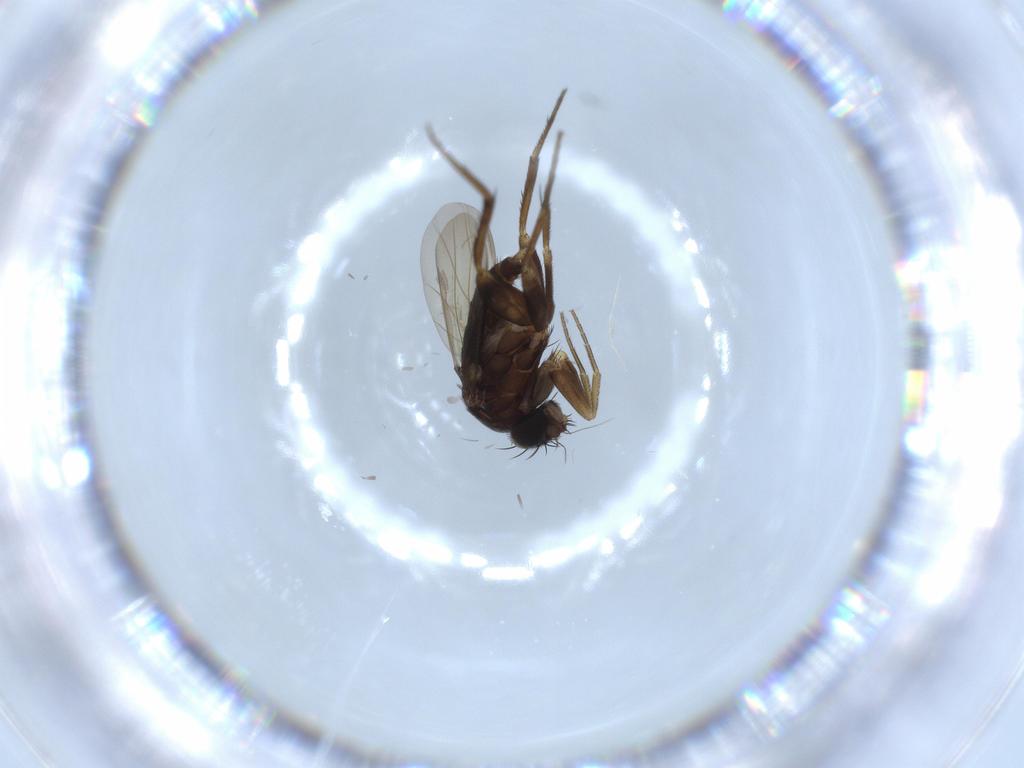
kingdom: Animalia
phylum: Arthropoda
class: Insecta
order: Diptera
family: Phoridae
